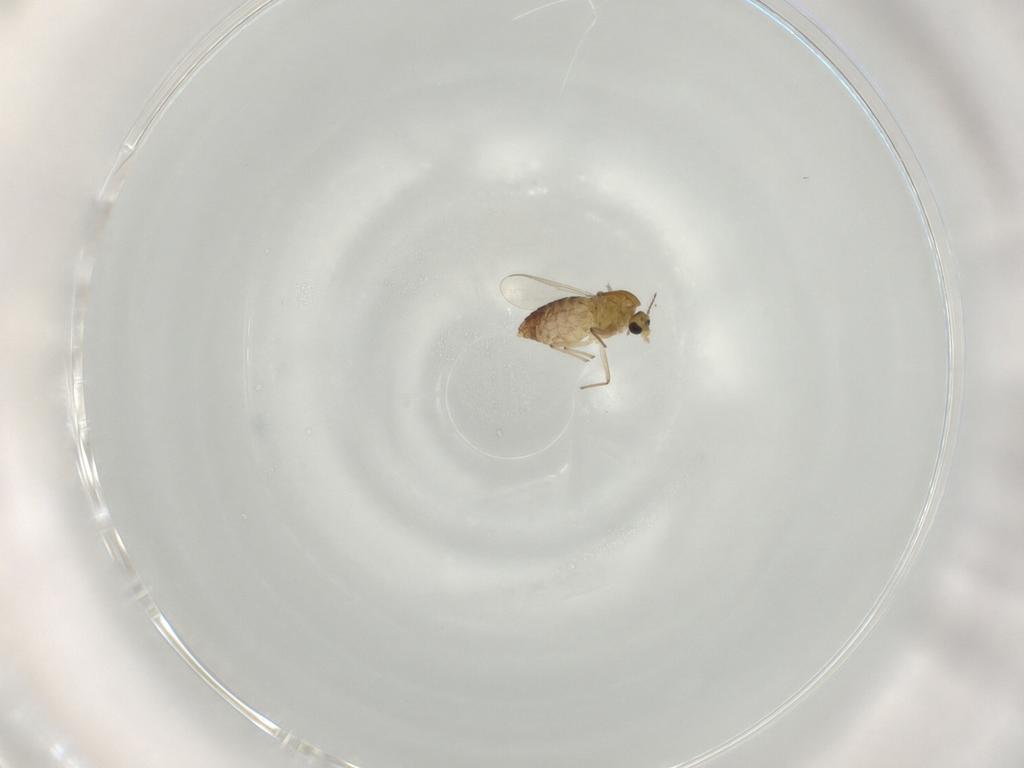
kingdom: Animalia
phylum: Arthropoda
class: Insecta
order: Diptera
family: Chironomidae
